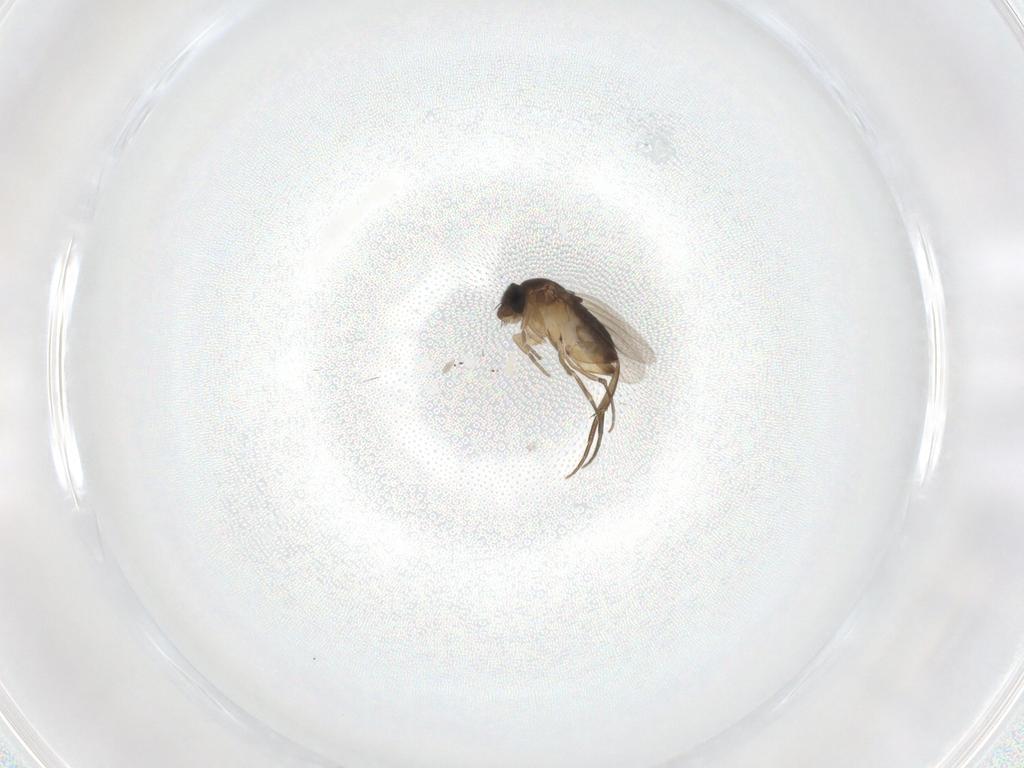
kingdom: Animalia
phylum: Arthropoda
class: Insecta
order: Diptera
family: Phoridae
